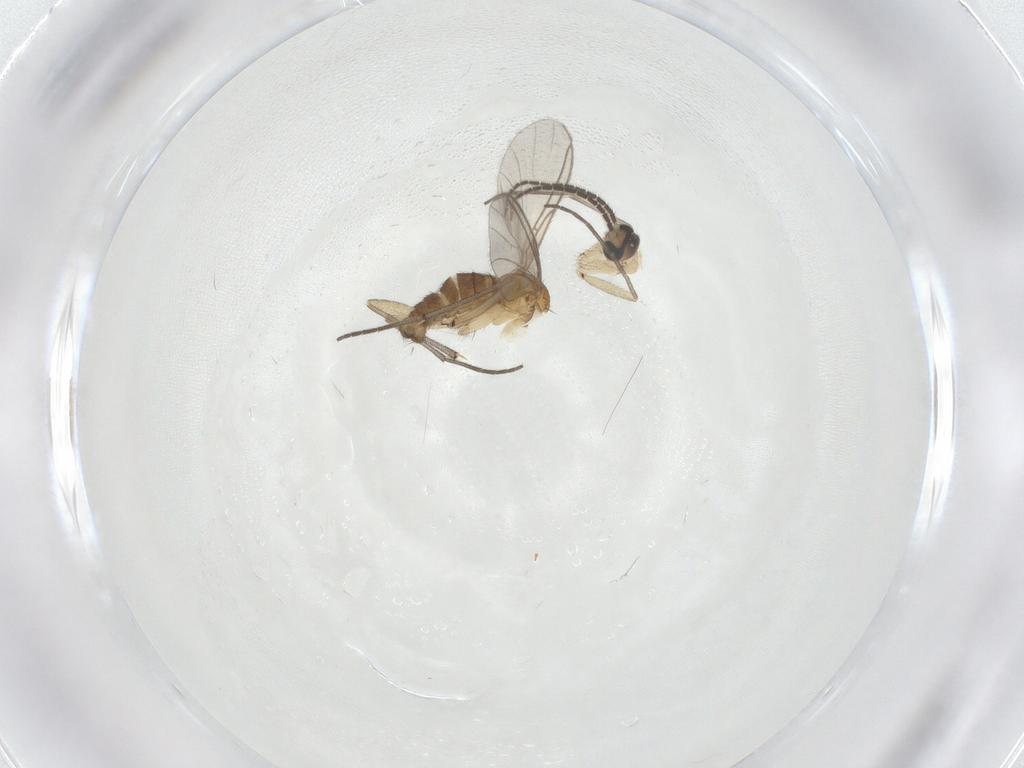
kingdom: Animalia
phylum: Arthropoda
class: Insecta
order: Diptera
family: Sciaridae
